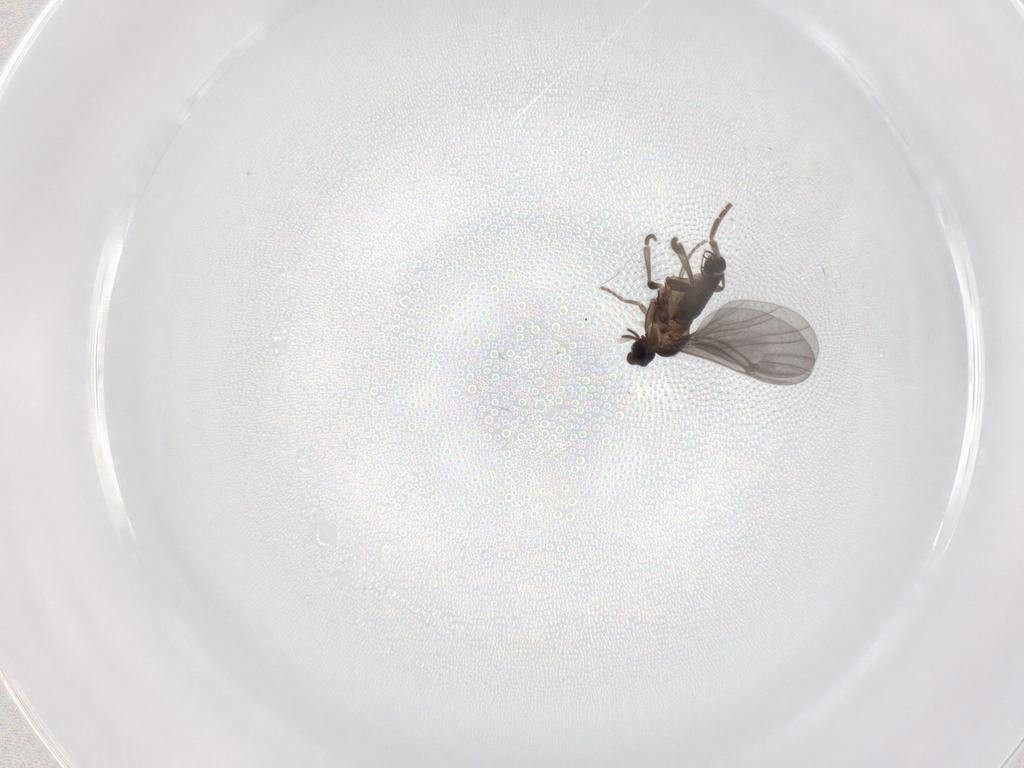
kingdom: Animalia
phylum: Arthropoda
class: Insecta
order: Diptera
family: Phoridae
